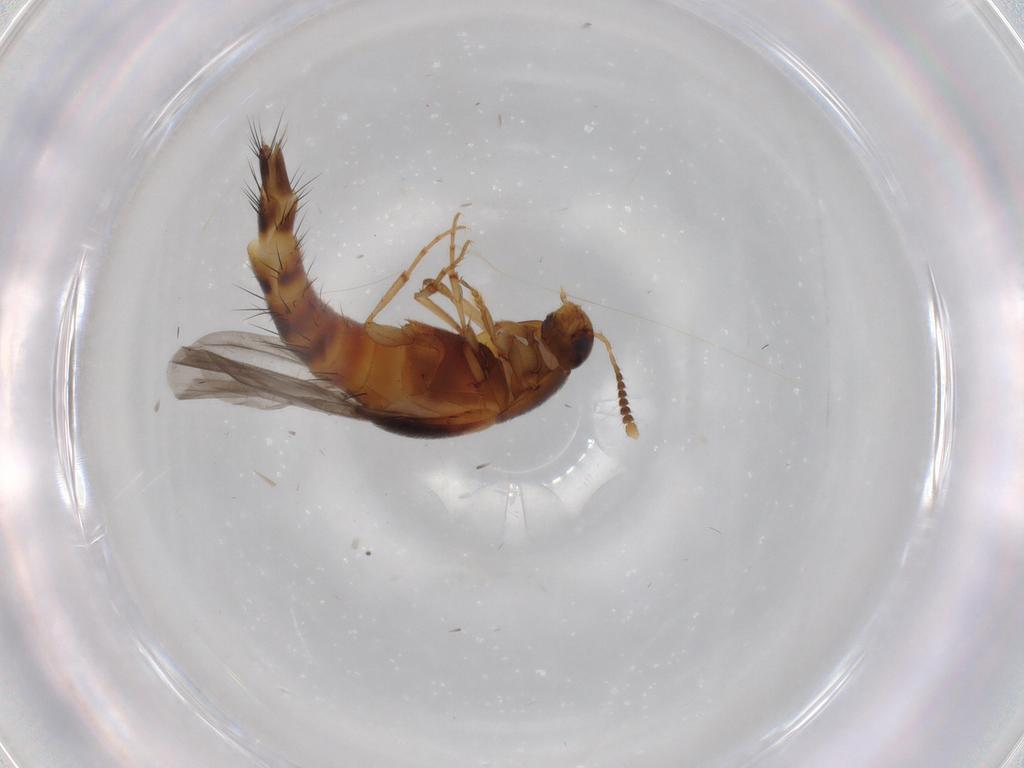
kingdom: Animalia
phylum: Arthropoda
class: Insecta
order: Coleoptera
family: Staphylinidae
